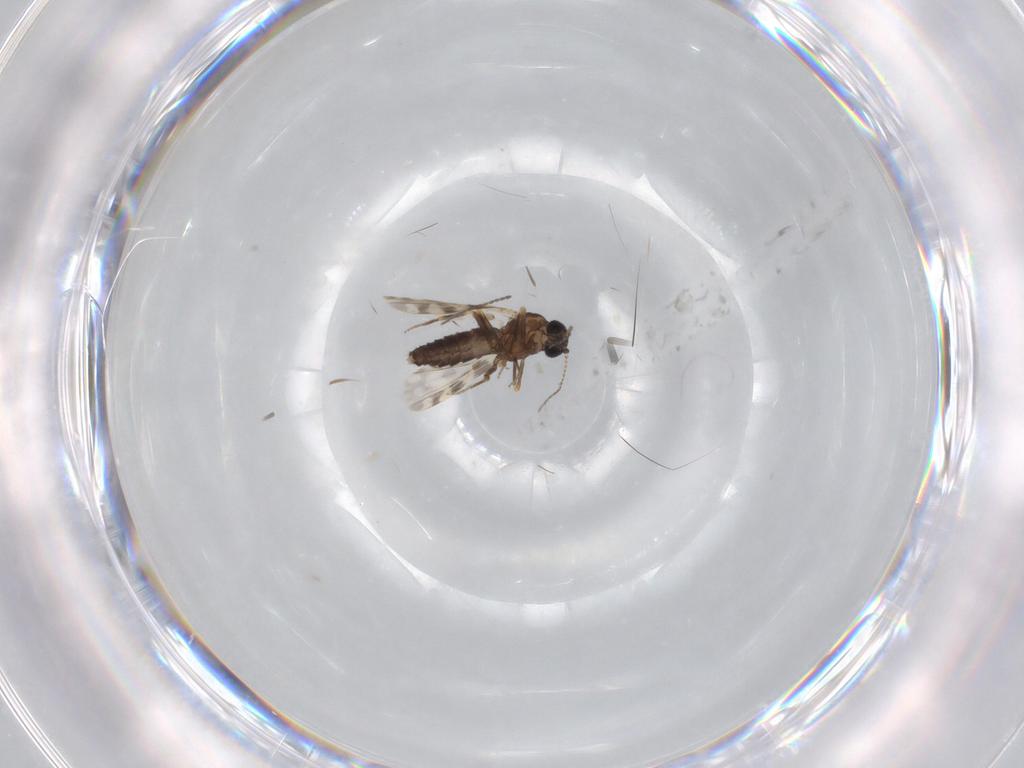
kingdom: Animalia
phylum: Arthropoda
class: Insecta
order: Diptera
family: Ceratopogonidae
